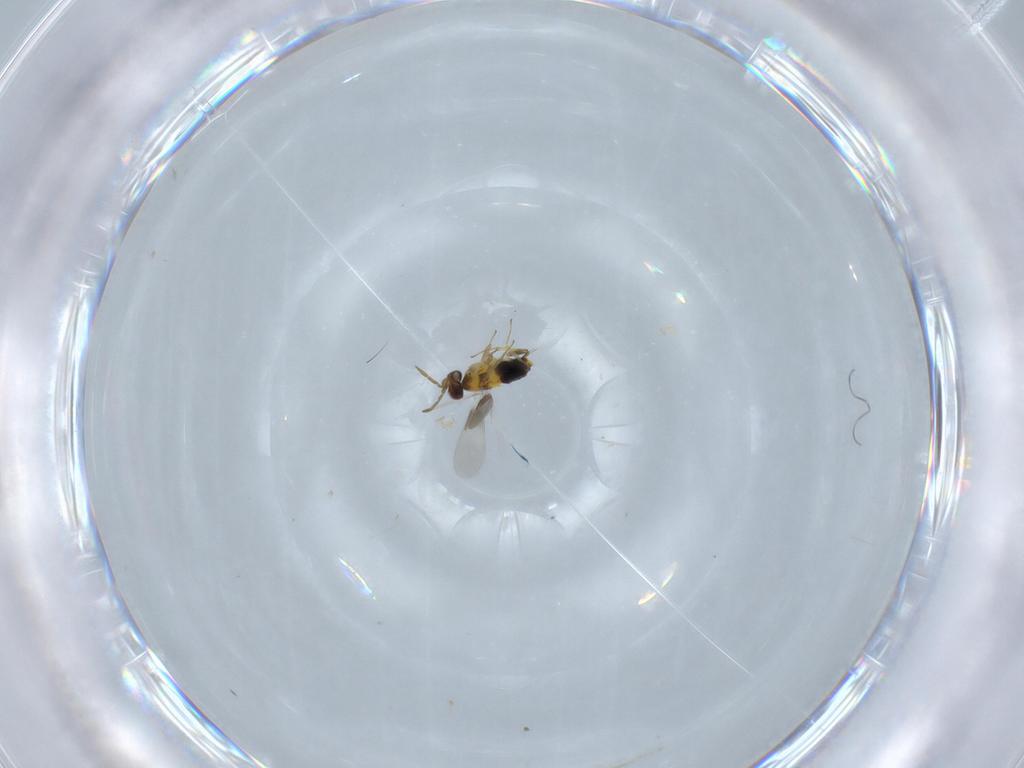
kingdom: Animalia
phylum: Arthropoda
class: Insecta
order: Hymenoptera
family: Aphelinidae
